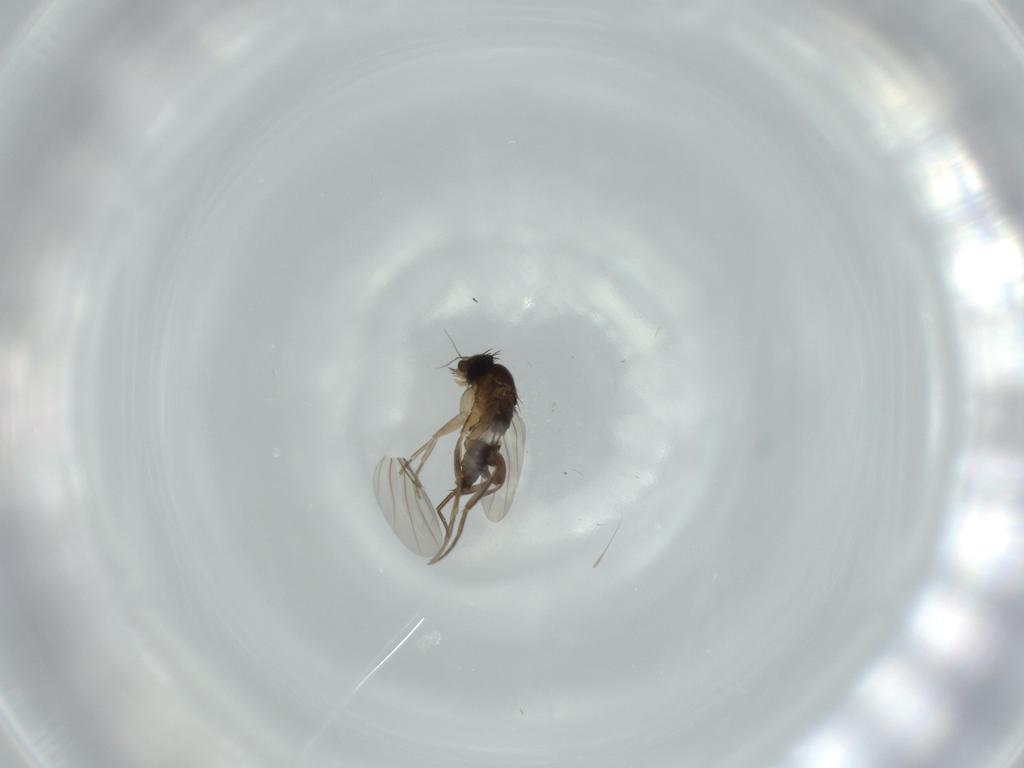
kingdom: Animalia
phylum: Arthropoda
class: Insecta
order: Diptera
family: Phoridae
